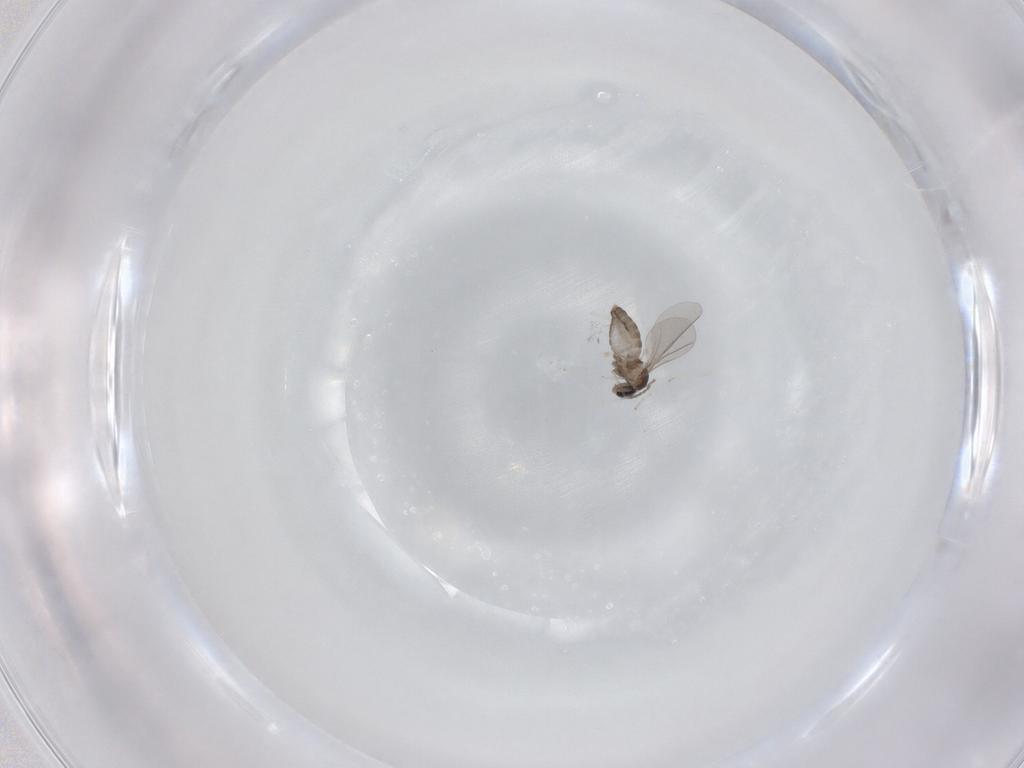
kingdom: Animalia
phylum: Arthropoda
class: Insecta
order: Diptera
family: Cecidomyiidae
